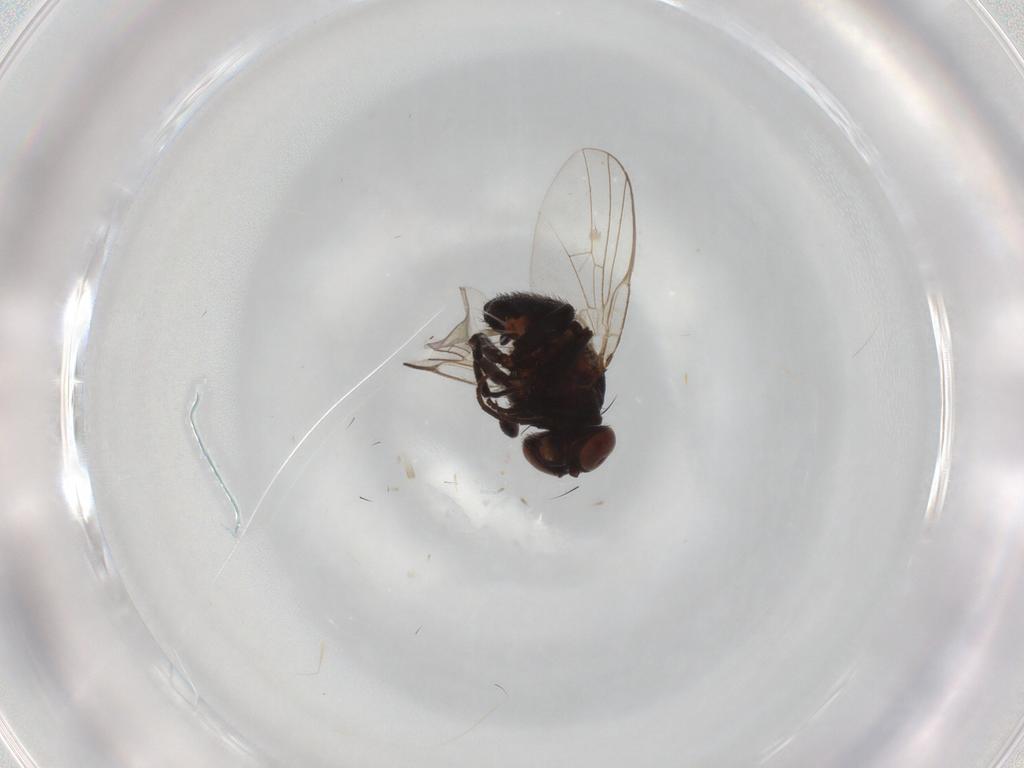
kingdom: Animalia
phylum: Arthropoda
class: Insecta
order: Diptera
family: Agromyzidae
